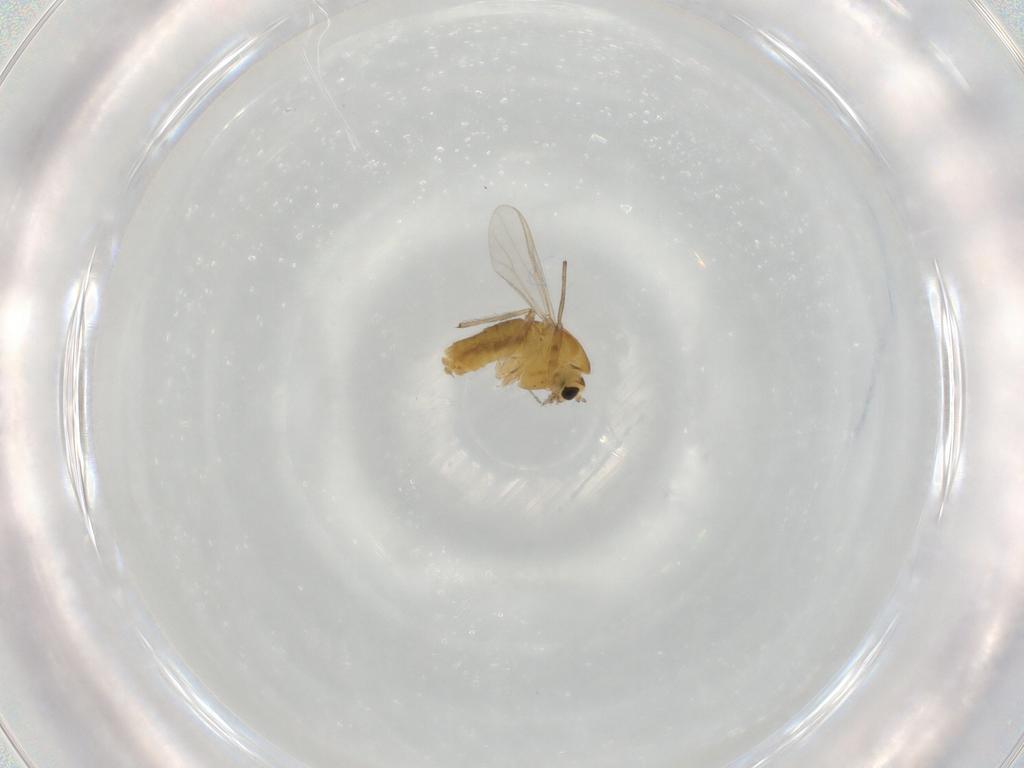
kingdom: Animalia
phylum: Arthropoda
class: Insecta
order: Diptera
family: Chironomidae
